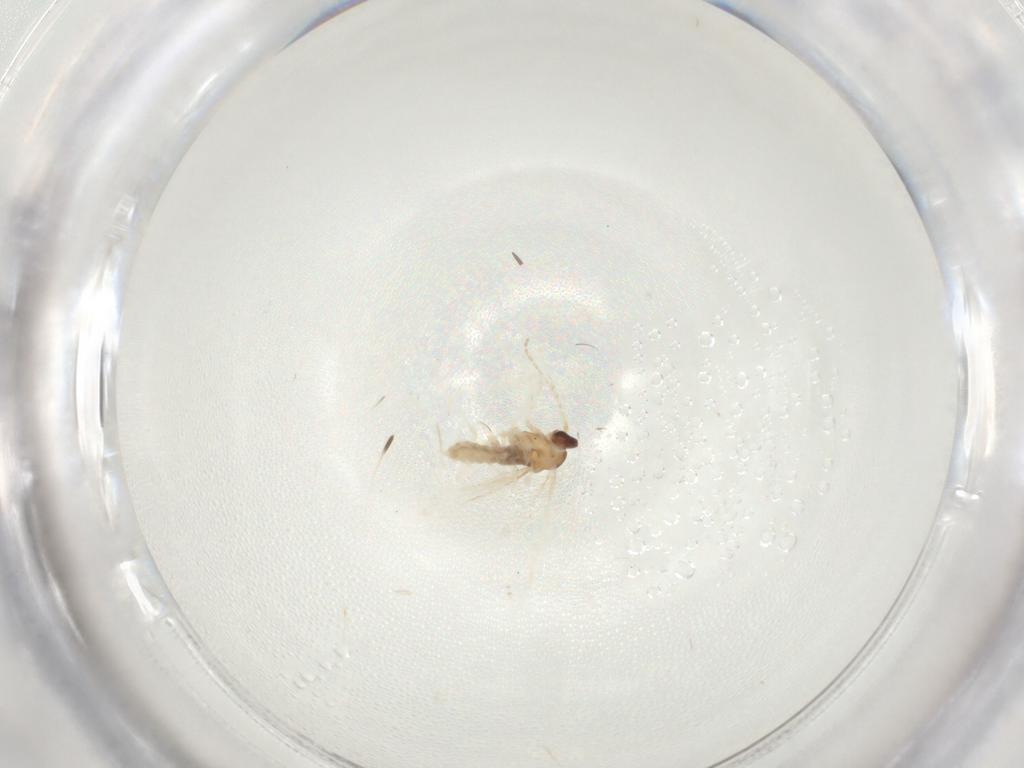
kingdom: Animalia
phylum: Arthropoda
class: Insecta
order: Diptera
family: Cecidomyiidae
